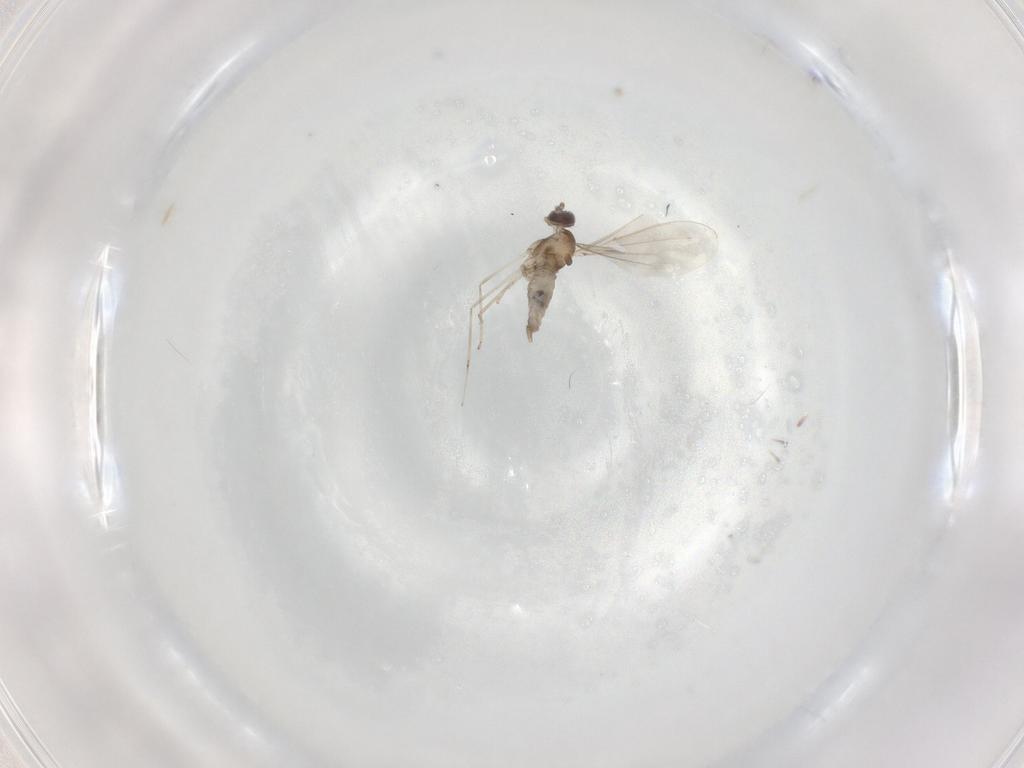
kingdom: Animalia
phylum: Arthropoda
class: Insecta
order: Diptera
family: Cecidomyiidae
